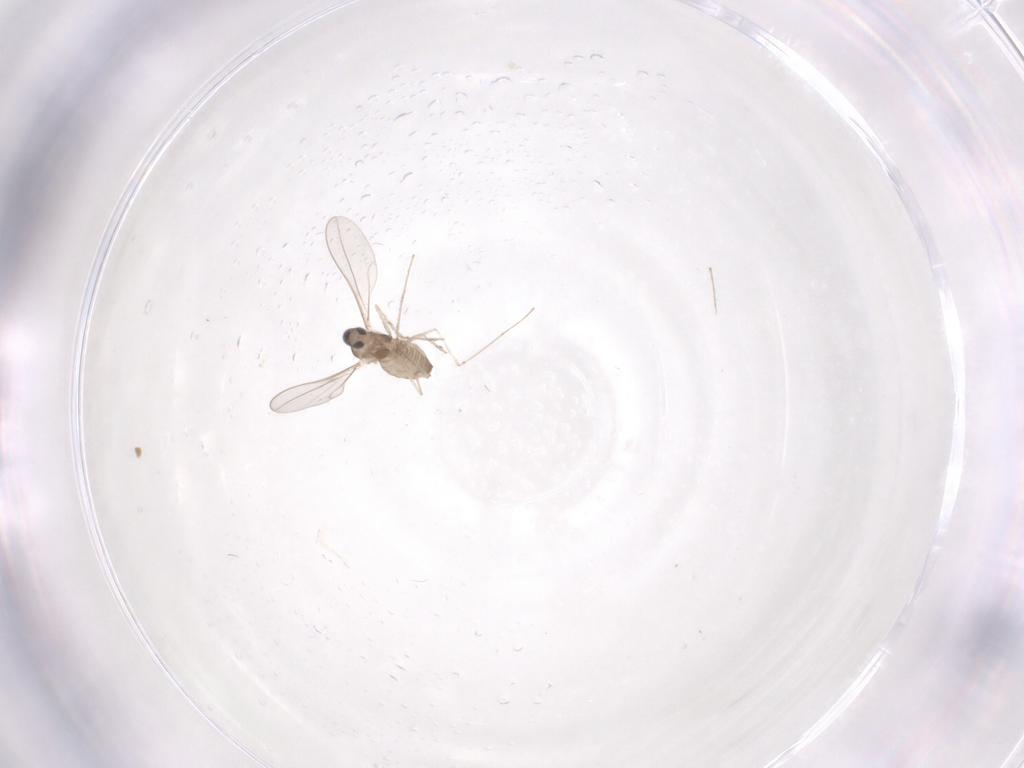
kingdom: Animalia
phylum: Arthropoda
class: Insecta
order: Diptera
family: Cecidomyiidae
